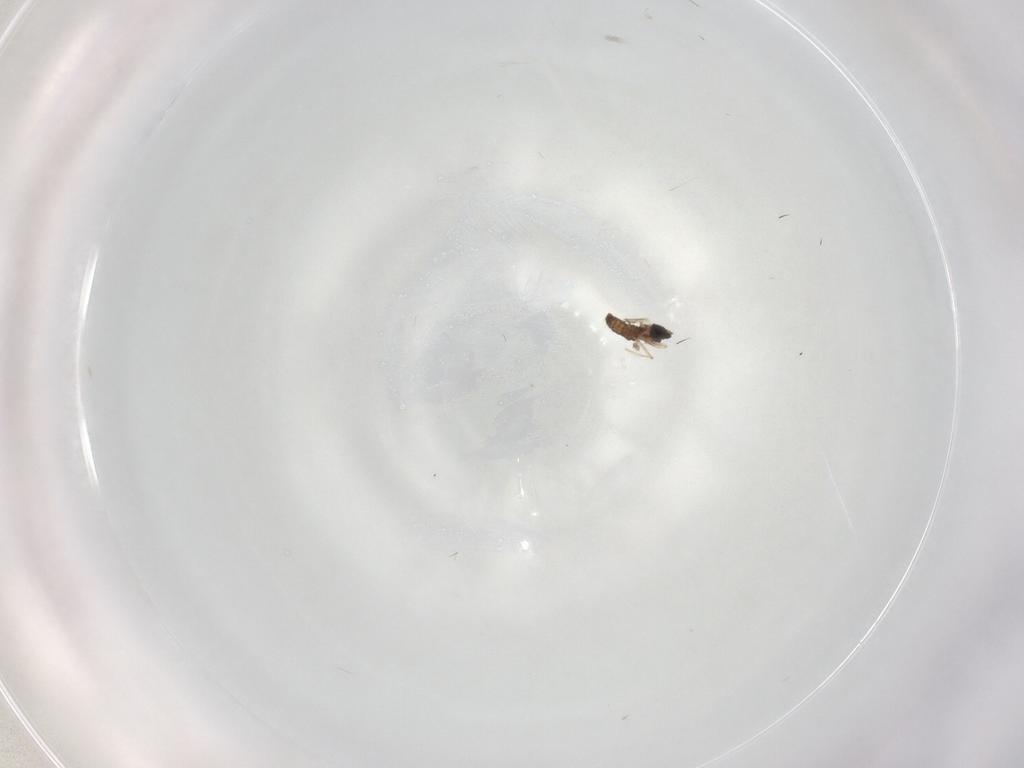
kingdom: Animalia
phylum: Arthropoda
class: Insecta
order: Diptera
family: Cecidomyiidae
